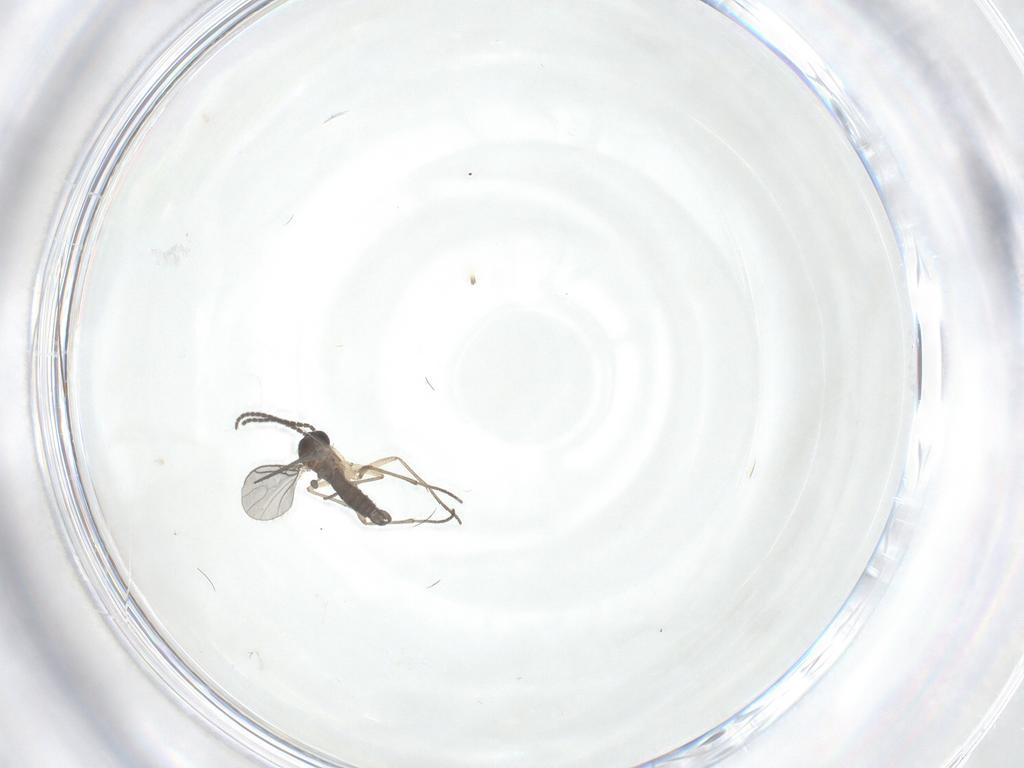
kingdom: Animalia
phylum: Arthropoda
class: Insecta
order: Diptera
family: Sciaridae
